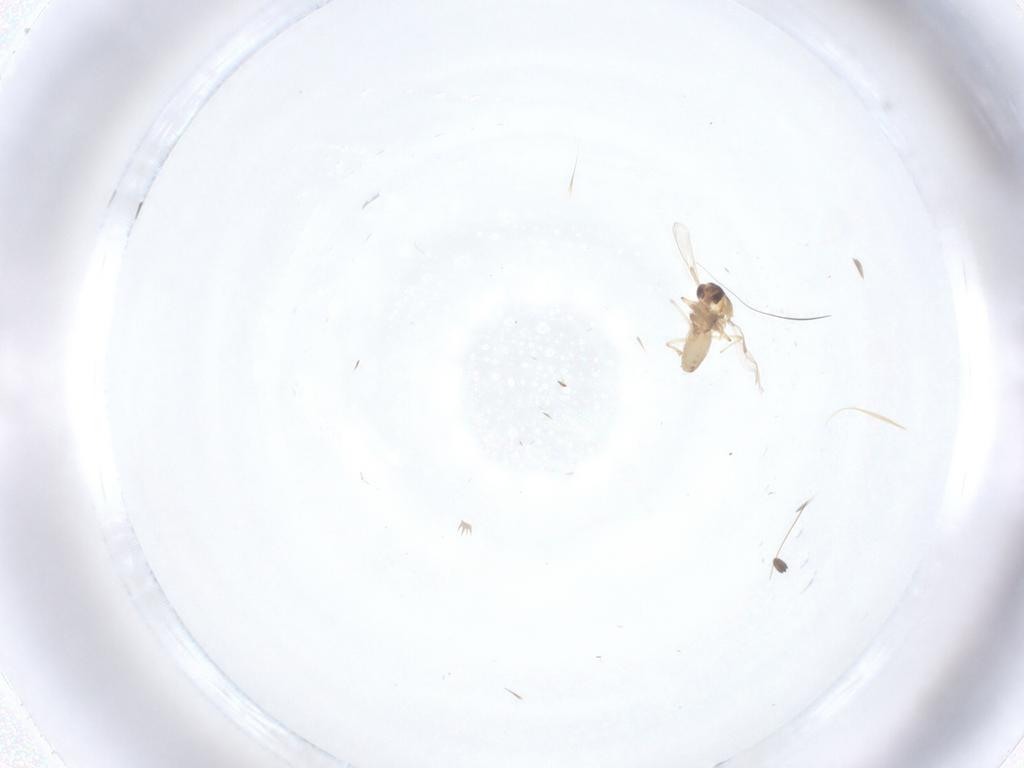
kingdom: Animalia
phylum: Arthropoda
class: Insecta
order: Diptera
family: Chironomidae
